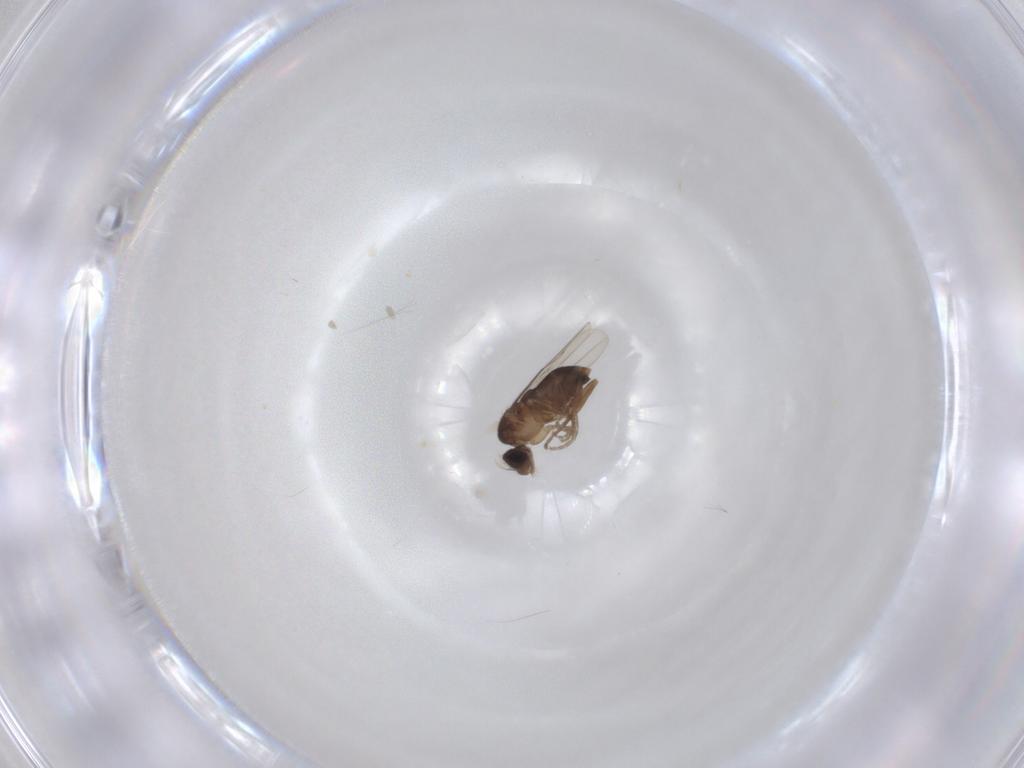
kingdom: Animalia
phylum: Arthropoda
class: Insecta
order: Diptera
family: Phoridae
